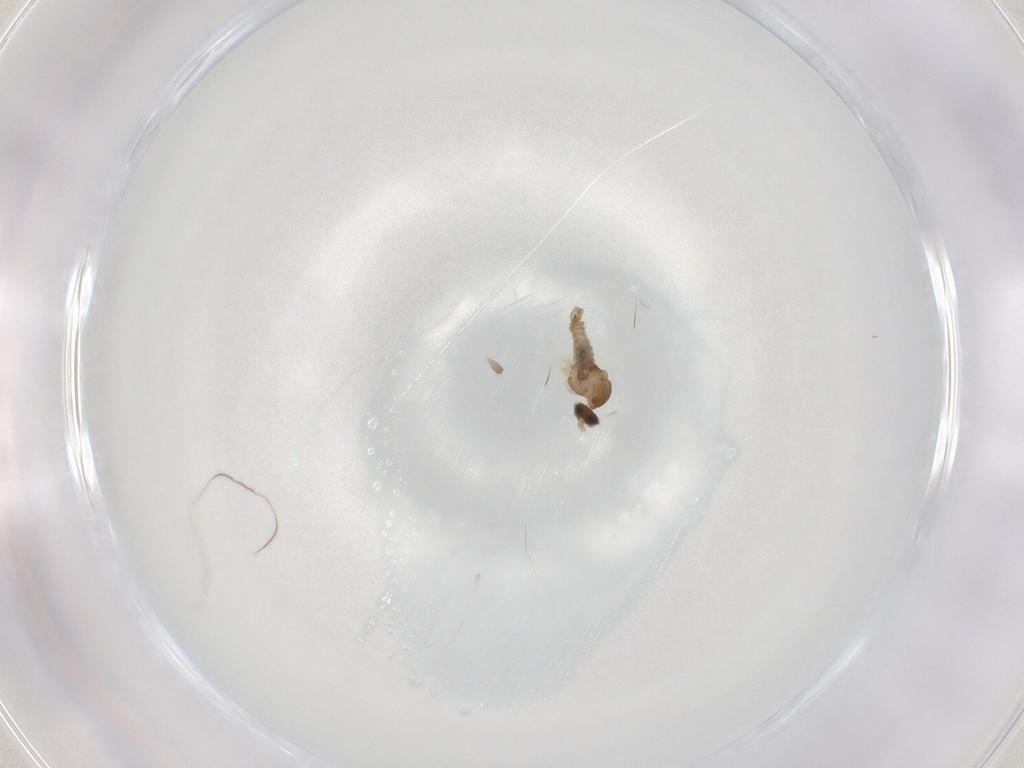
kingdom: Animalia
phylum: Arthropoda
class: Insecta
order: Diptera
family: Dolichopodidae
